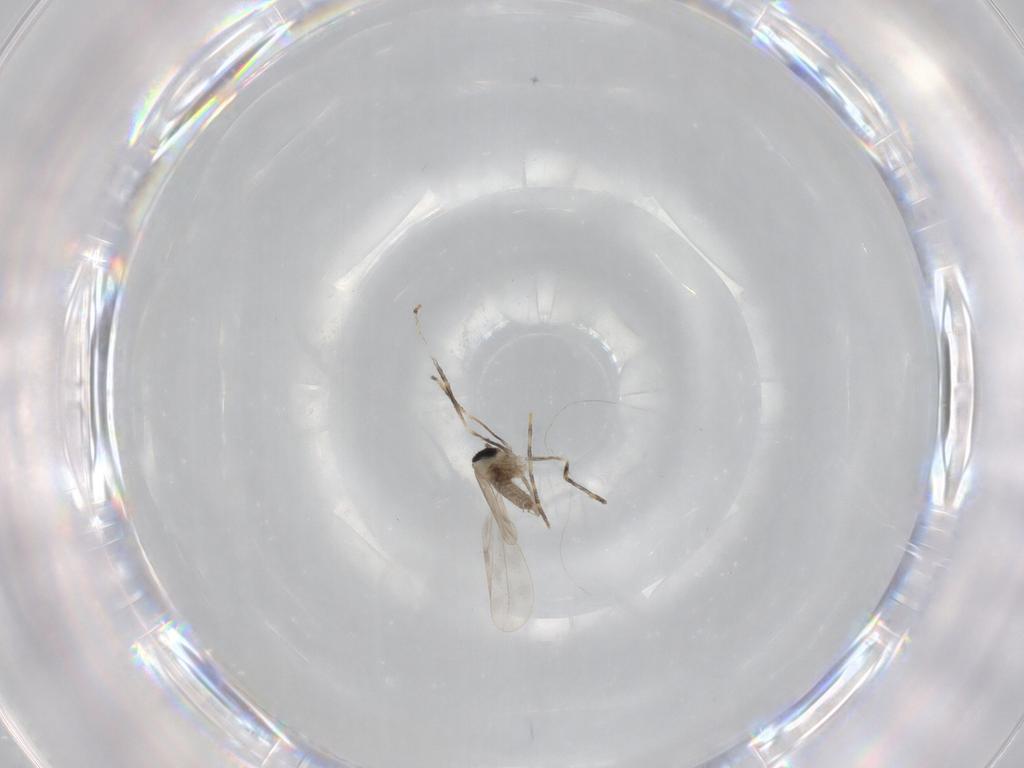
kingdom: Animalia
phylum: Arthropoda
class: Insecta
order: Diptera
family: Cecidomyiidae
